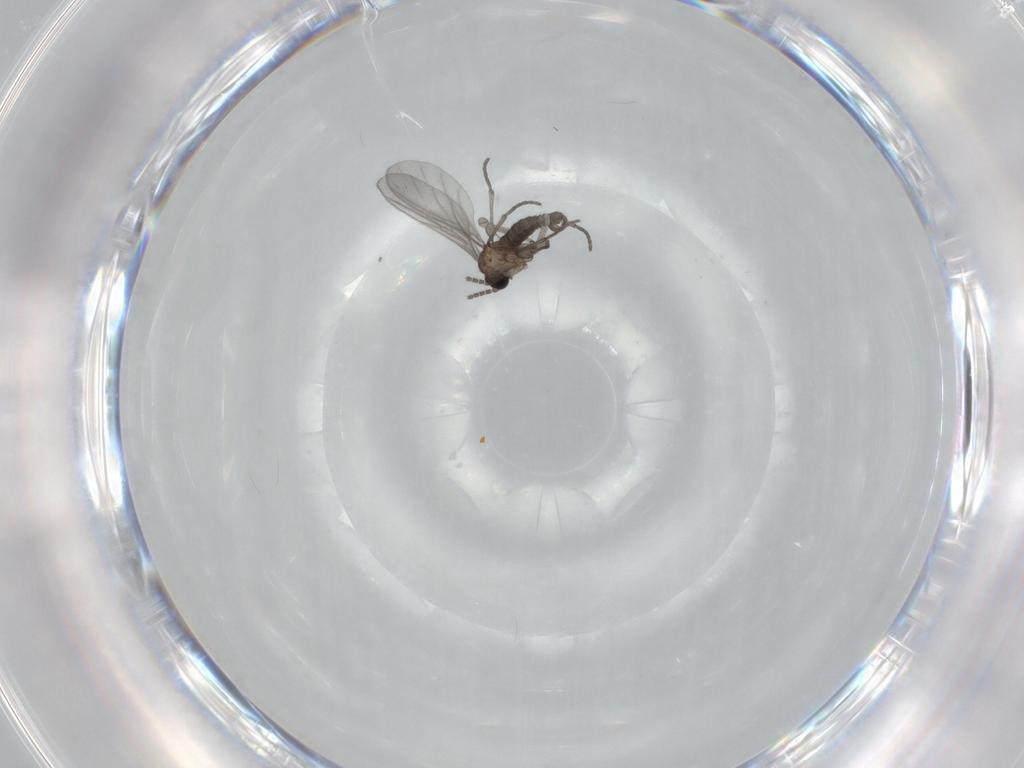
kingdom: Animalia
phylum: Arthropoda
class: Insecta
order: Diptera
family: Sciaridae
